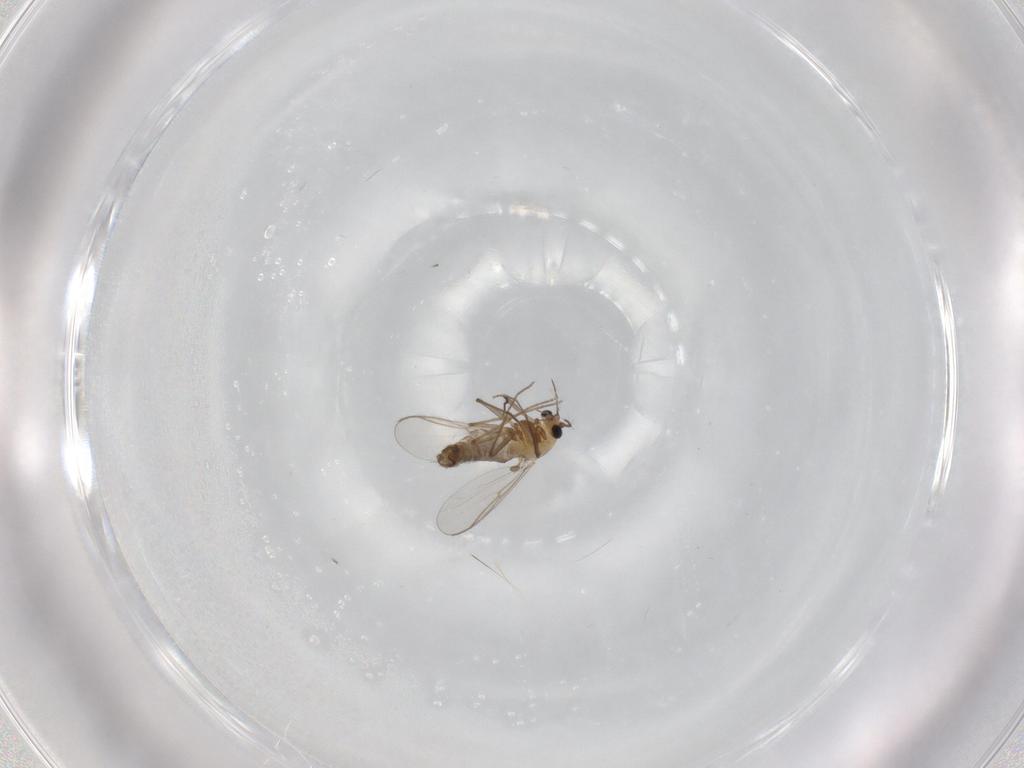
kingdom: Animalia
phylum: Arthropoda
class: Insecta
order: Diptera
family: Chironomidae
